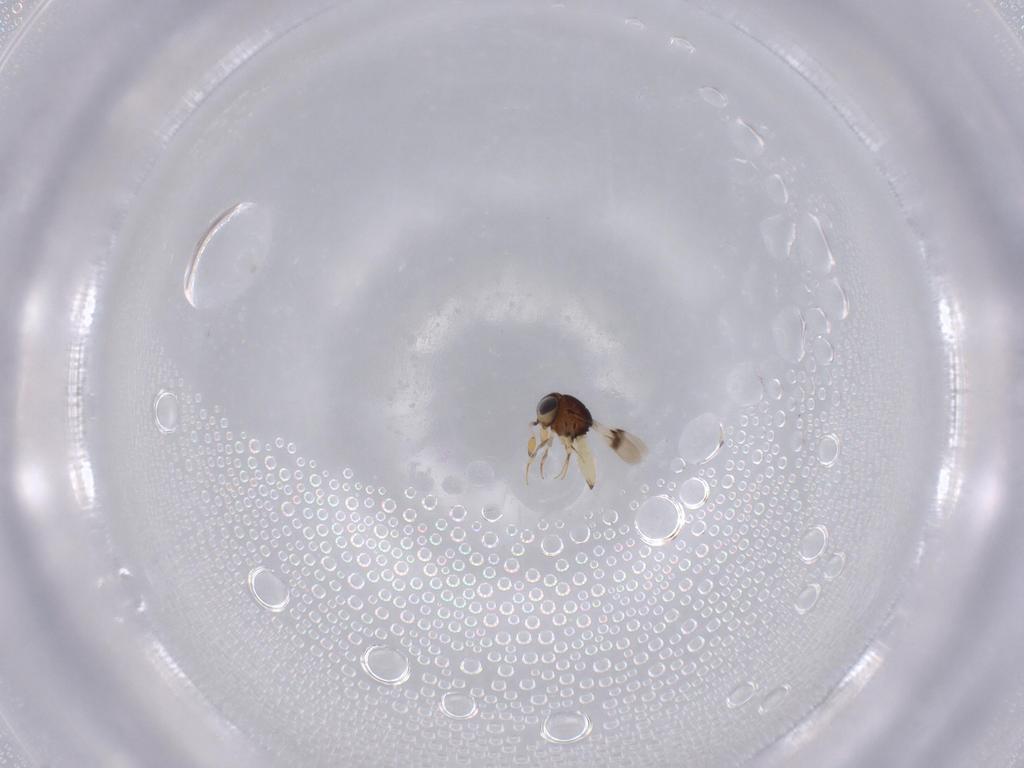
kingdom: Animalia
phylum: Arthropoda
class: Insecta
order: Hymenoptera
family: Scelionidae
